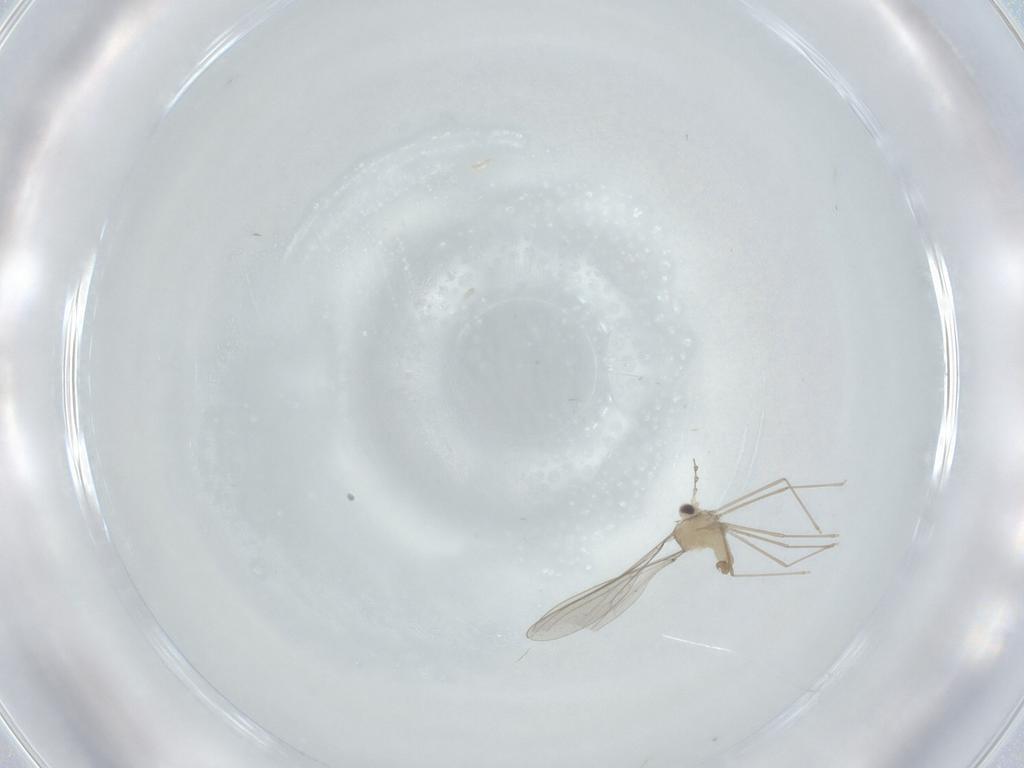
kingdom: Animalia
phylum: Arthropoda
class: Insecta
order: Diptera
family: Cecidomyiidae
